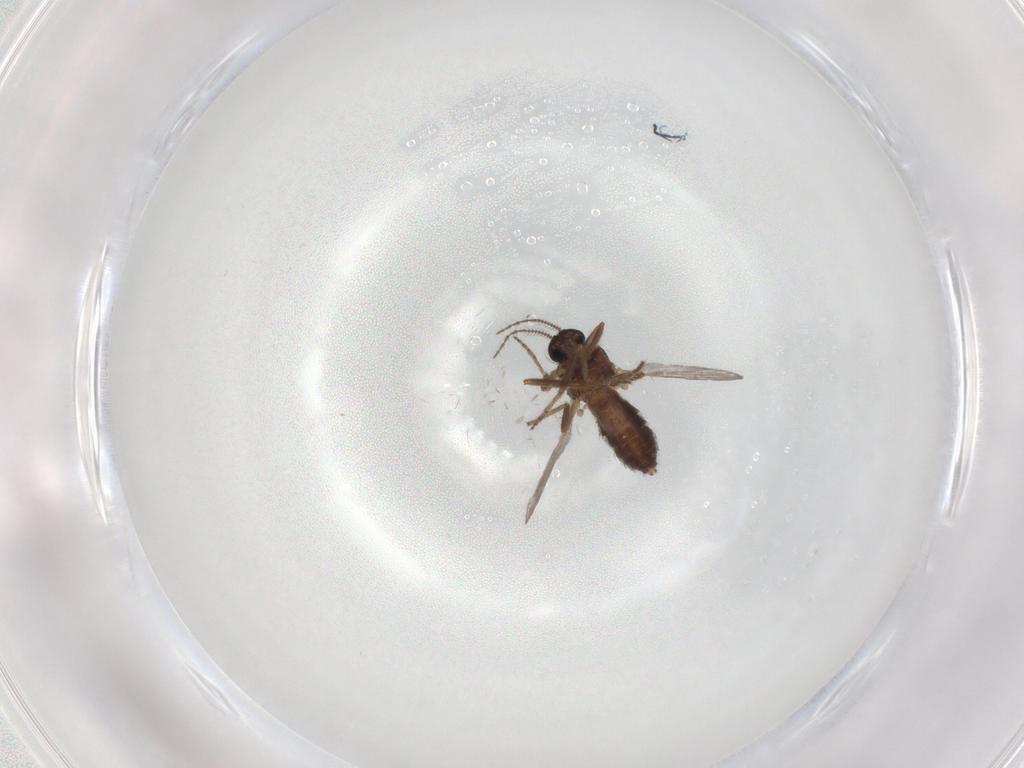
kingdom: Animalia
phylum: Arthropoda
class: Insecta
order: Diptera
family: Ceratopogonidae
